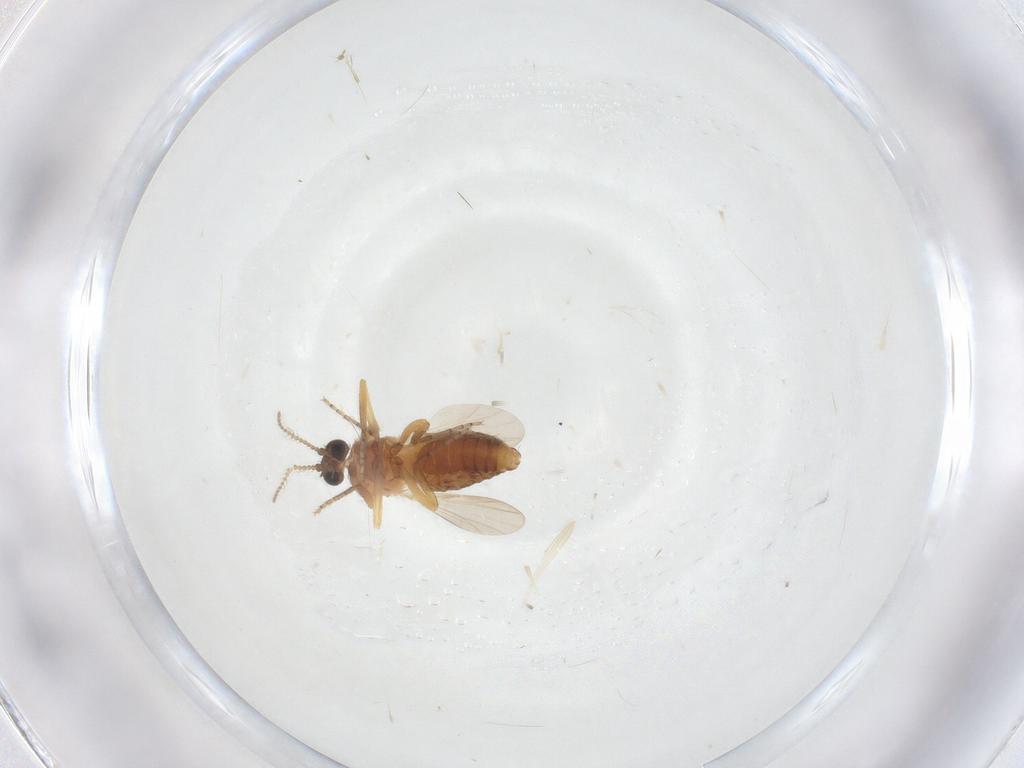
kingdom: Animalia
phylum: Arthropoda
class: Insecta
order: Diptera
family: Ceratopogonidae
